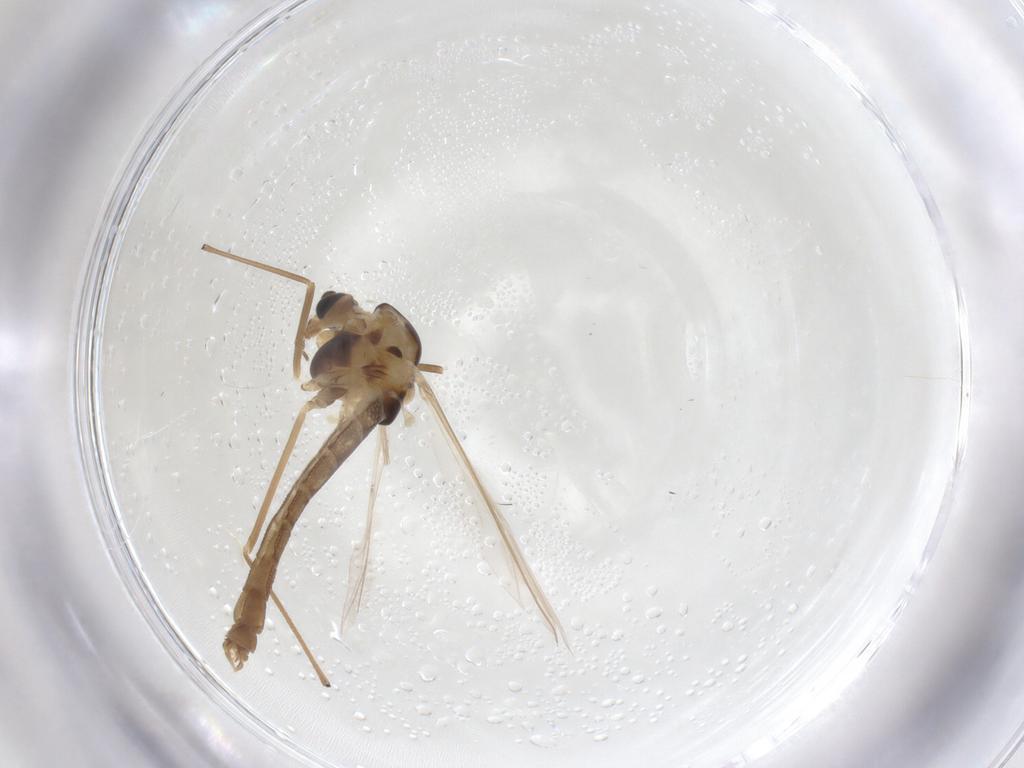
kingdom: Animalia
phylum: Arthropoda
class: Insecta
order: Diptera
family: Chironomidae
